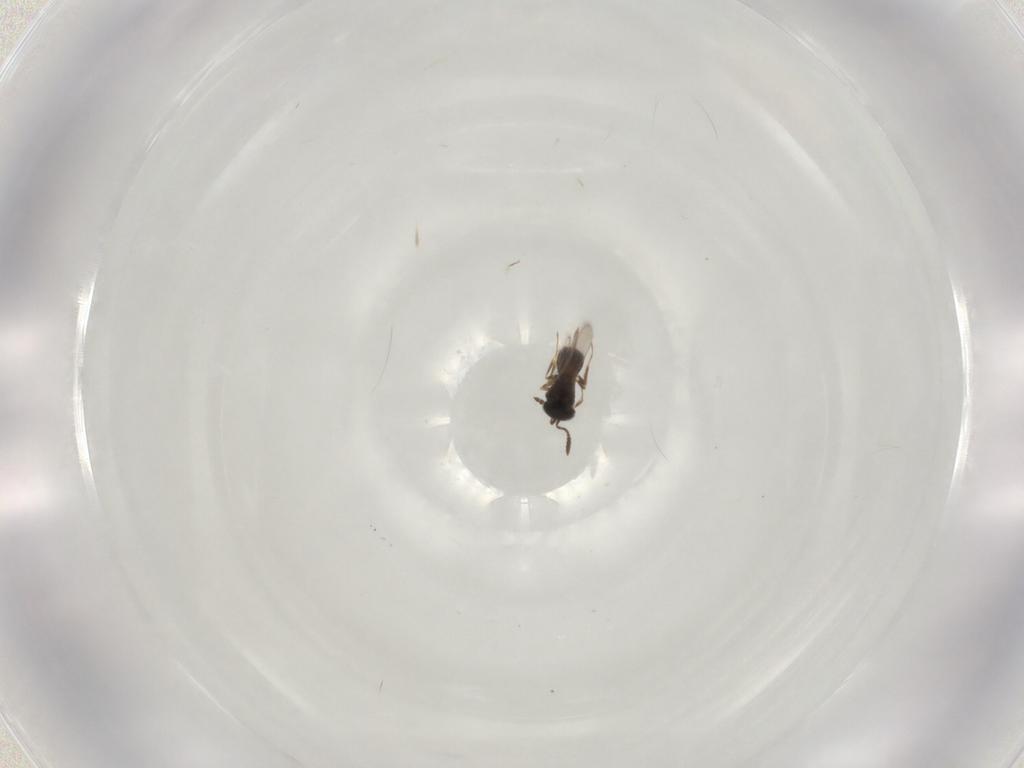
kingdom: Animalia
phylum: Arthropoda
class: Insecta
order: Hymenoptera
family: Scelionidae
